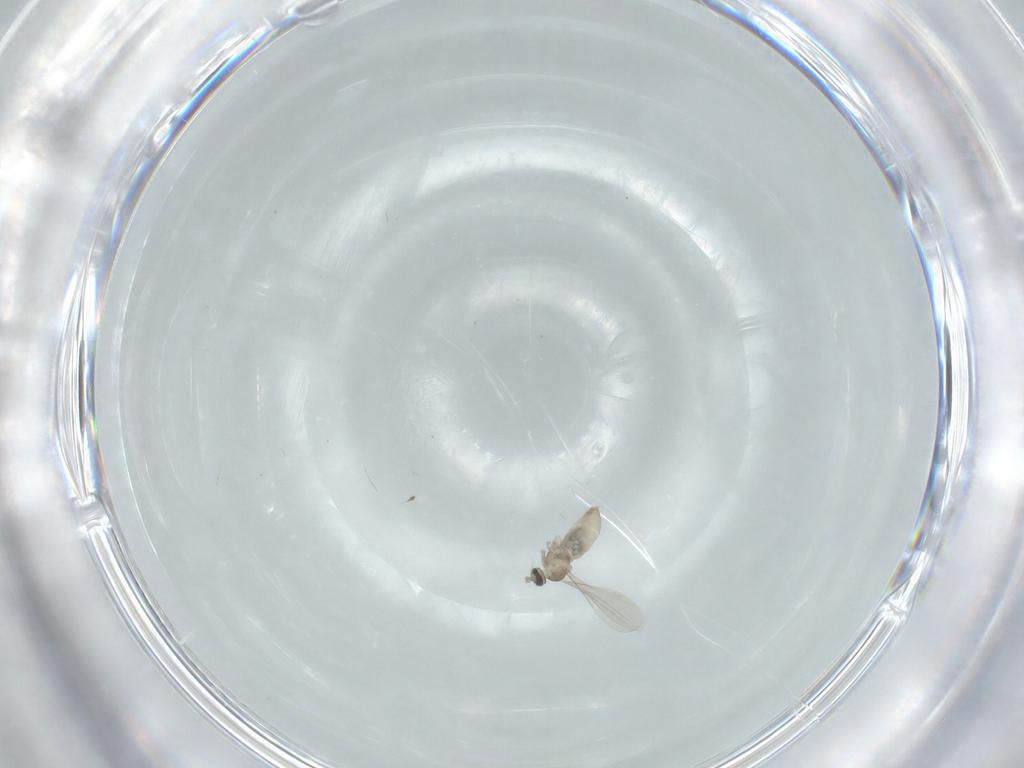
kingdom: Animalia
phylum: Arthropoda
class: Insecta
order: Diptera
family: Cecidomyiidae
